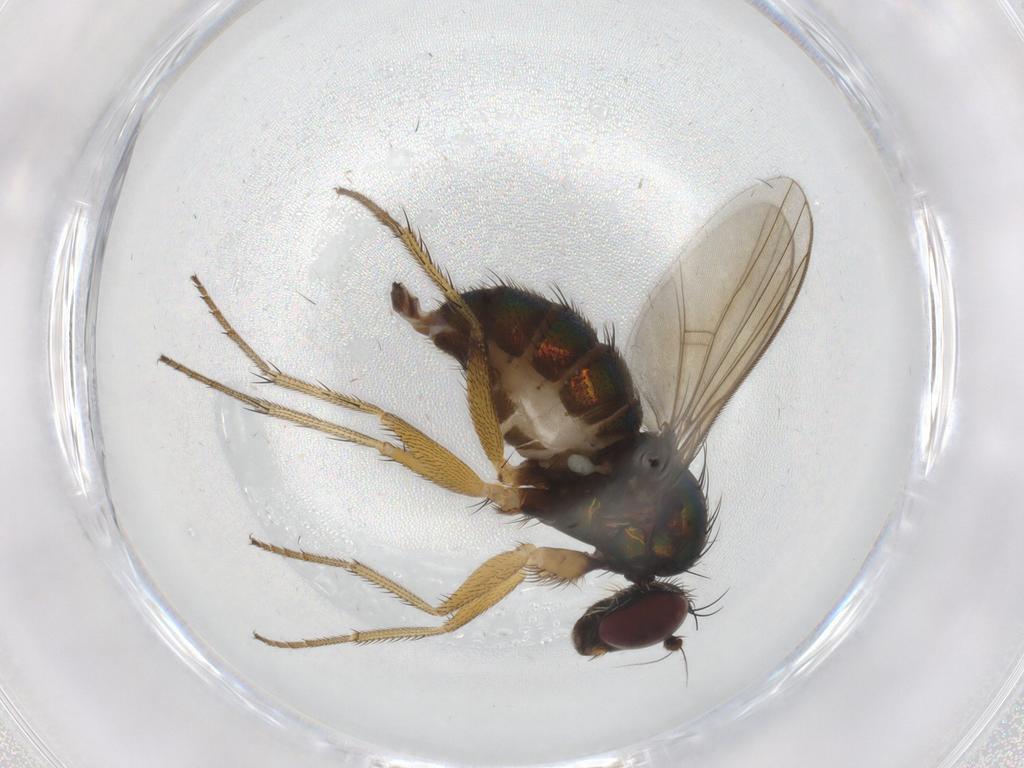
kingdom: Animalia
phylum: Arthropoda
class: Insecta
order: Diptera
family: Dolichopodidae
